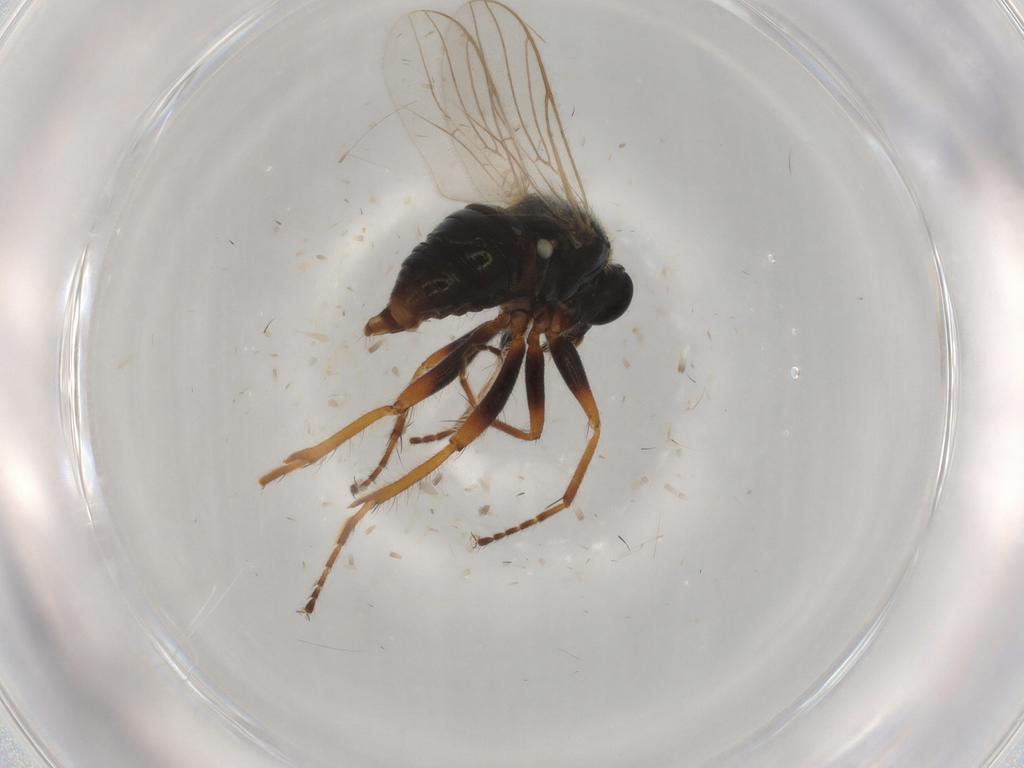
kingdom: Animalia
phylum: Arthropoda
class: Insecta
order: Diptera
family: Hybotidae
